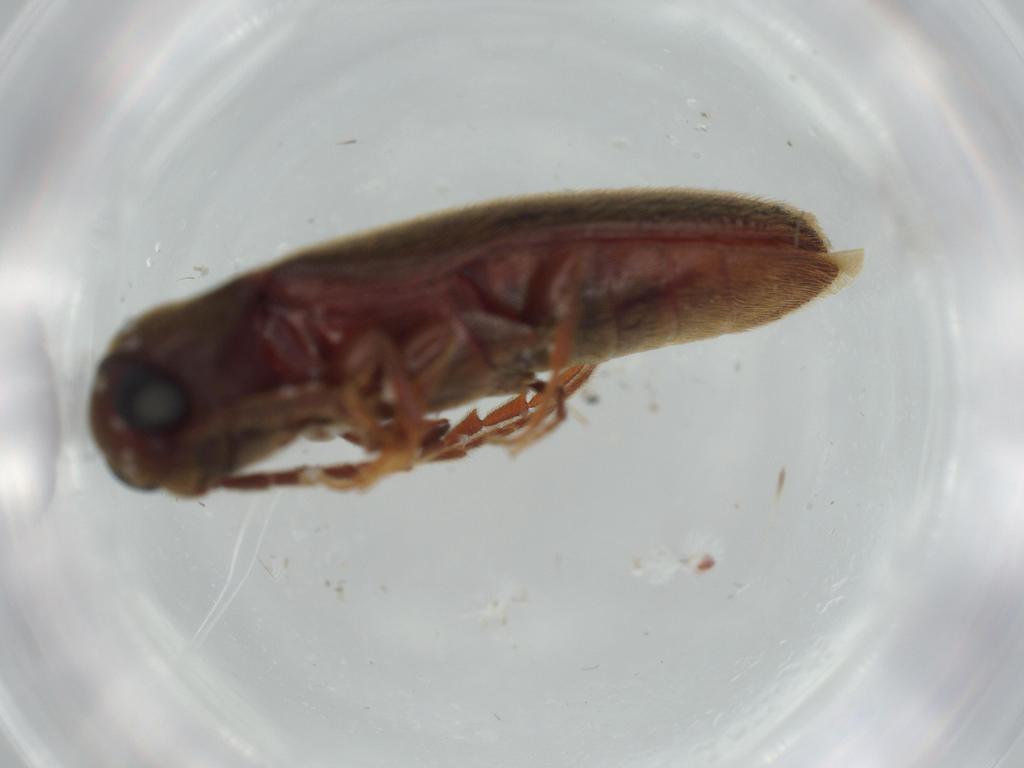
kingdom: Animalia
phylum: Arthropoda
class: Insecta
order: Coleoptera
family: Eucnemidae
